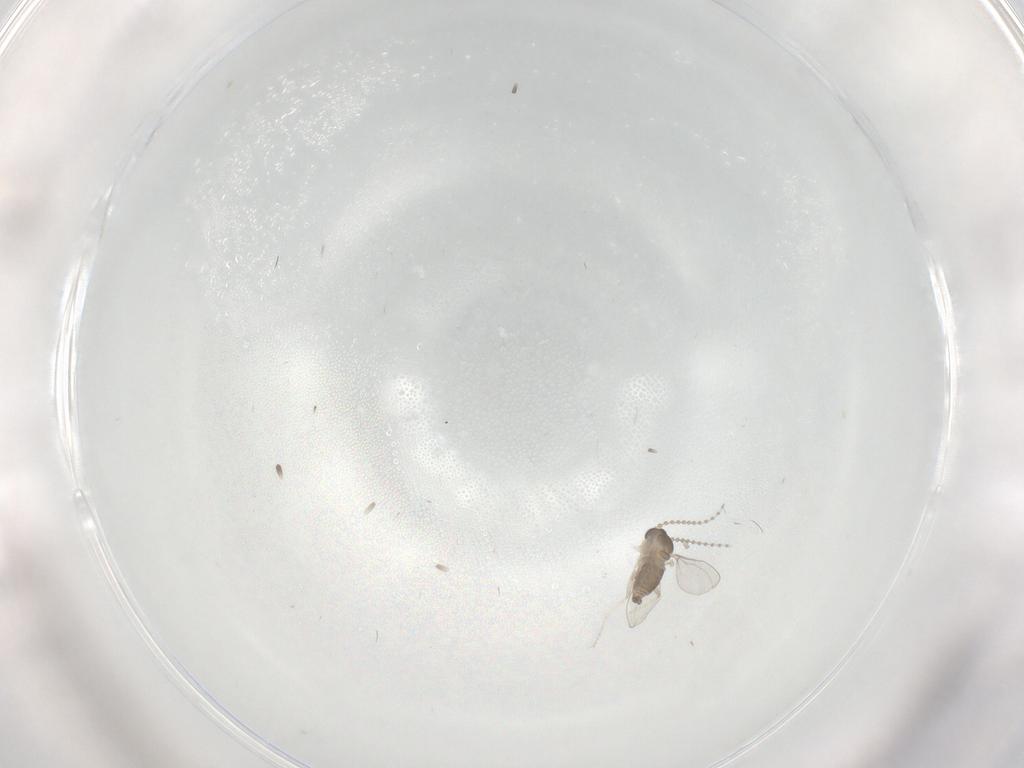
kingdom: Animalia
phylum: Arthropoda
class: Insecta
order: Diptera
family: Cecidomyiidae
